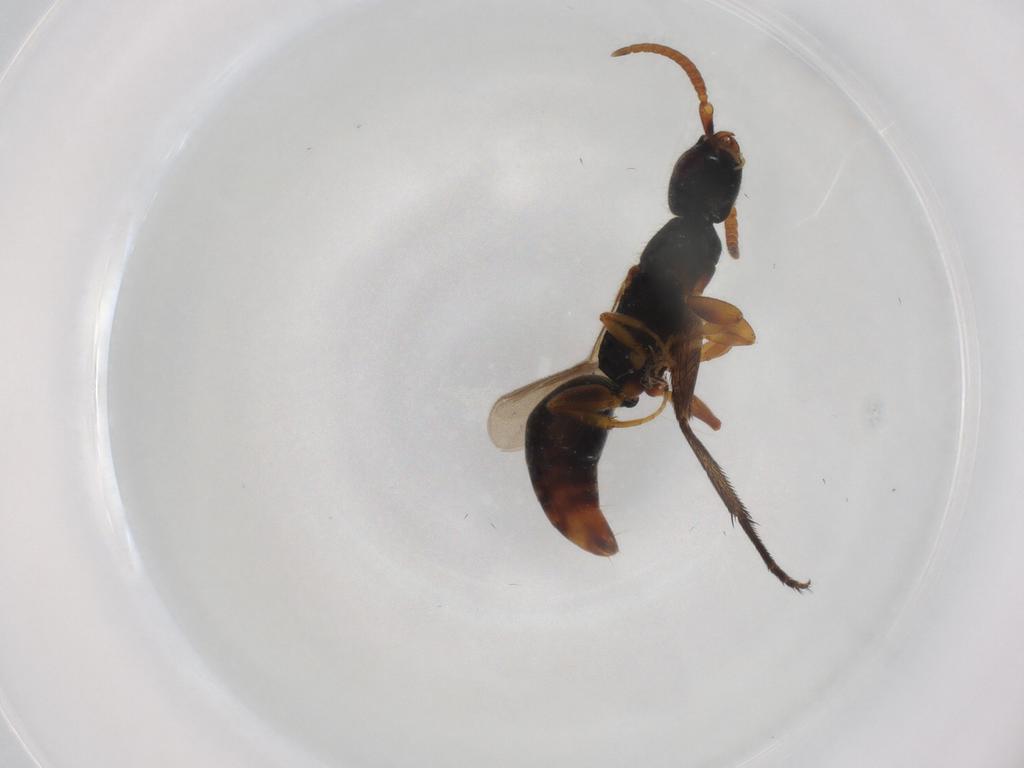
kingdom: Animalia
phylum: Arthropoda
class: Insecta
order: Hymenoptera
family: Bethylidae
